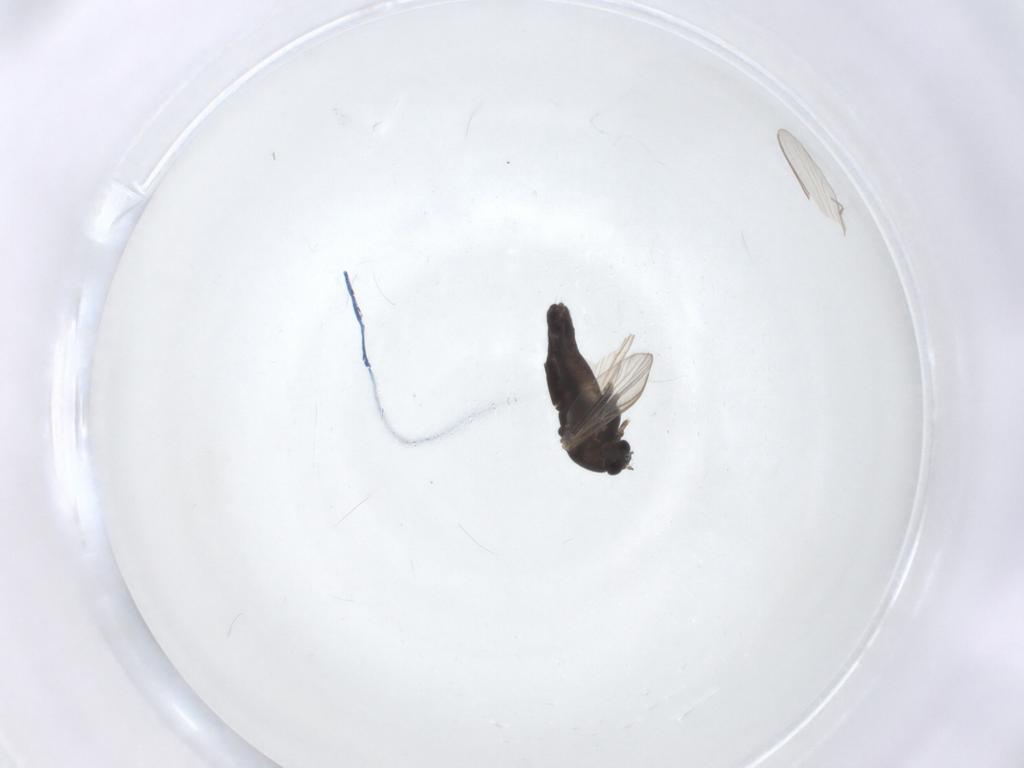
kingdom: Animalia
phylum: Arthropoda
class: Insecta
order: Diptera
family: Chironomidae
